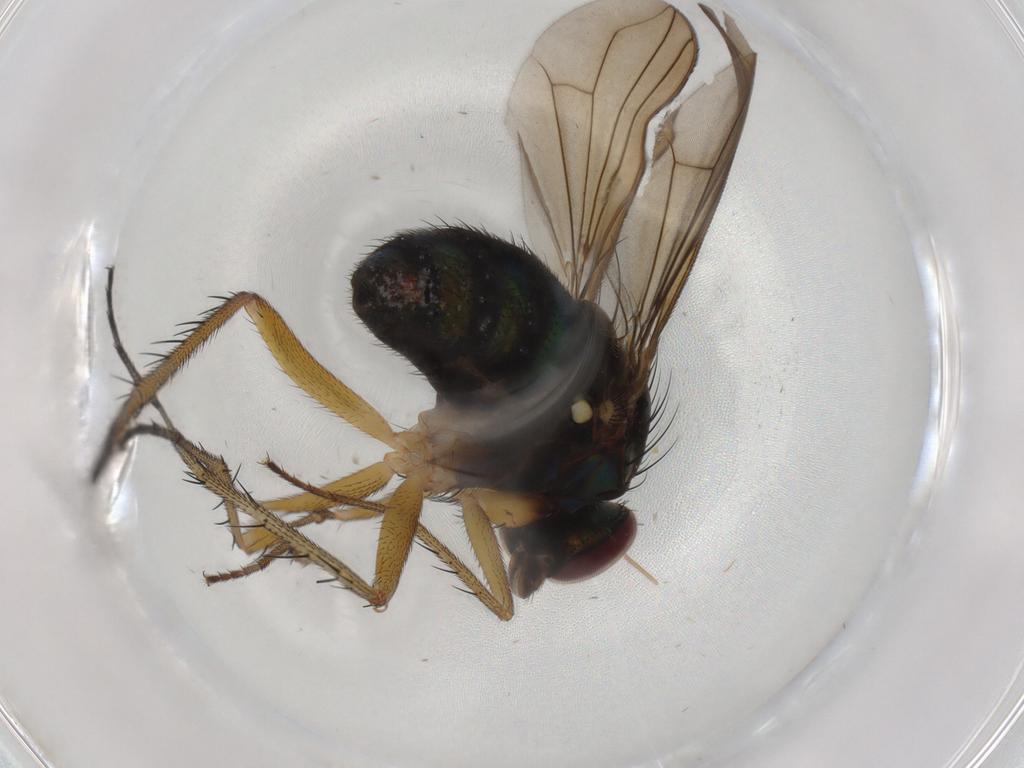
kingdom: Animalia
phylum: Arthropoda
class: Insecta
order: Diptera
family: Dolichopodidae
